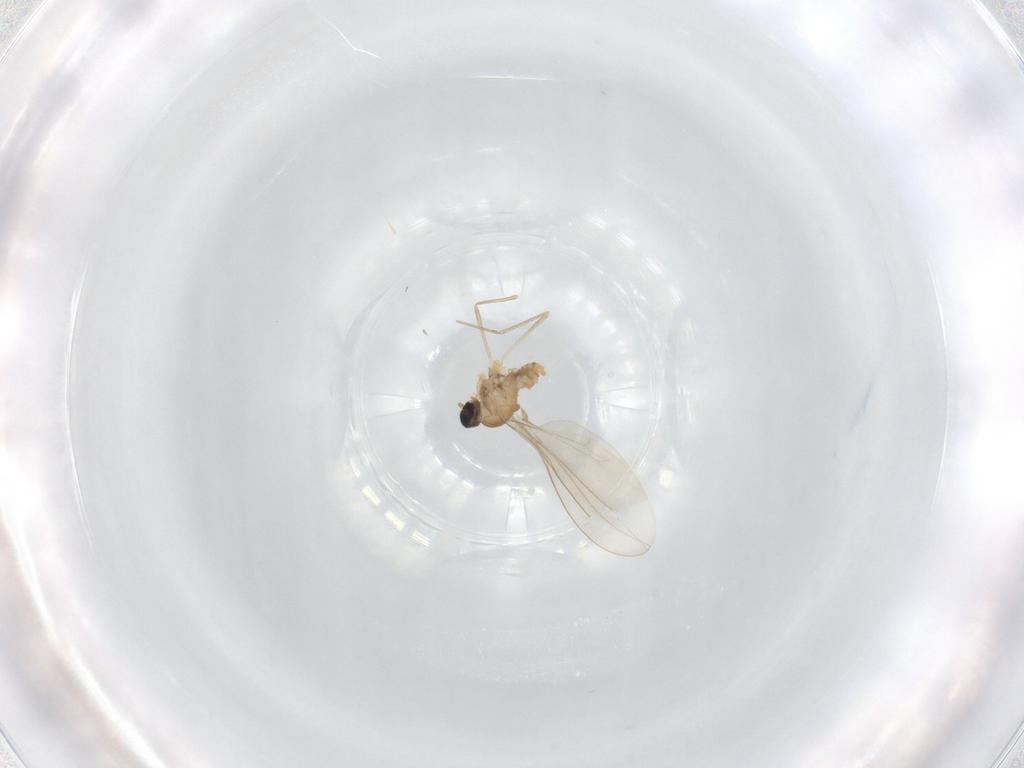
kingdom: Animalia
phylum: Arthropoda
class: Insecta
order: Diptera
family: Cecidomyiidae
